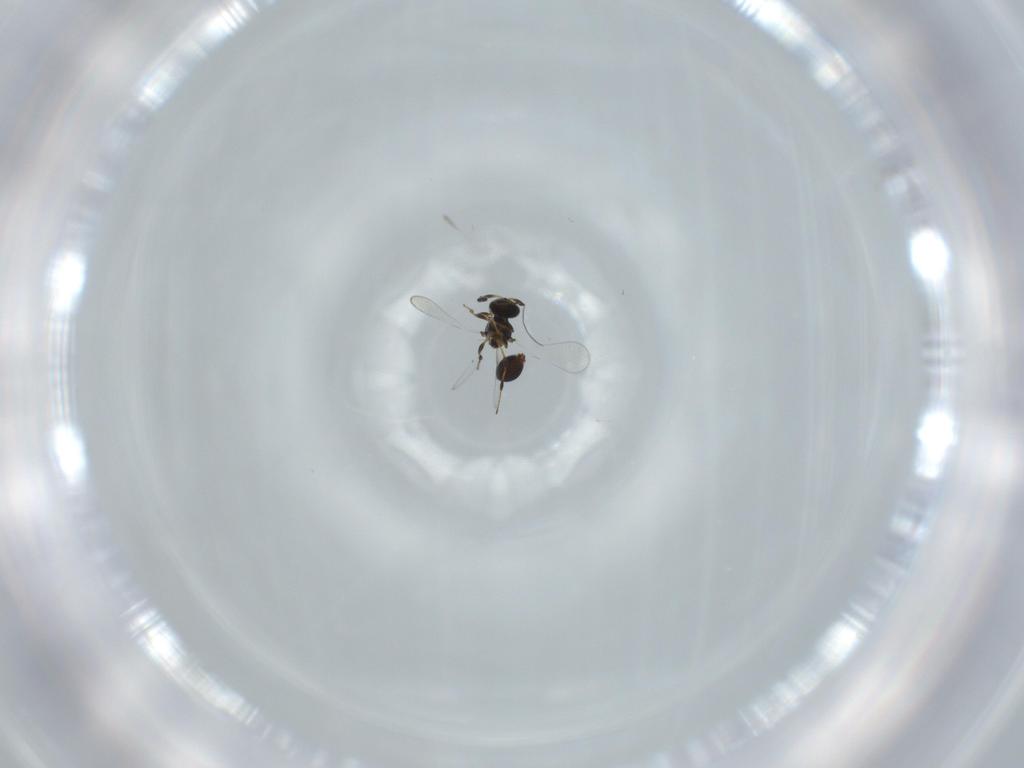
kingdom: Animalia
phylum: Arthropoda
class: Insecta
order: Hymenoptera
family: Platygastridae
